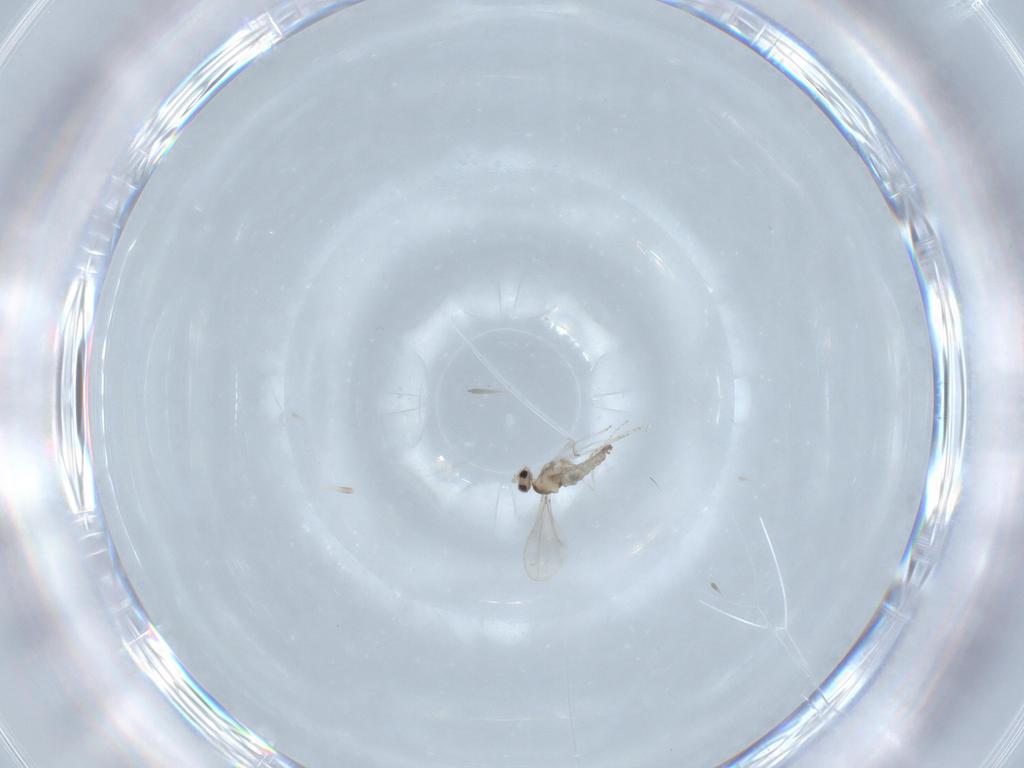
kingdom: Animalia
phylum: Arthropoda
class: Insecta
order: Diptera
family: Cecidomyiidae
